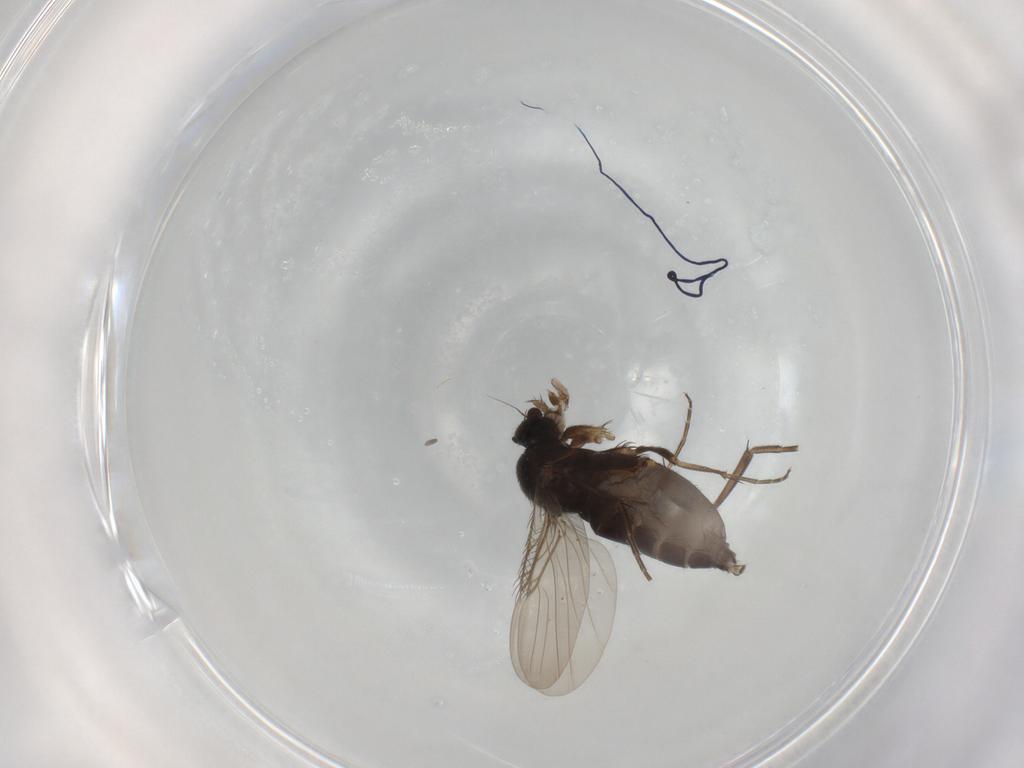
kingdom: Animalia
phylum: Arthropoda
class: Insecta
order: Diptera
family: Phoridae
